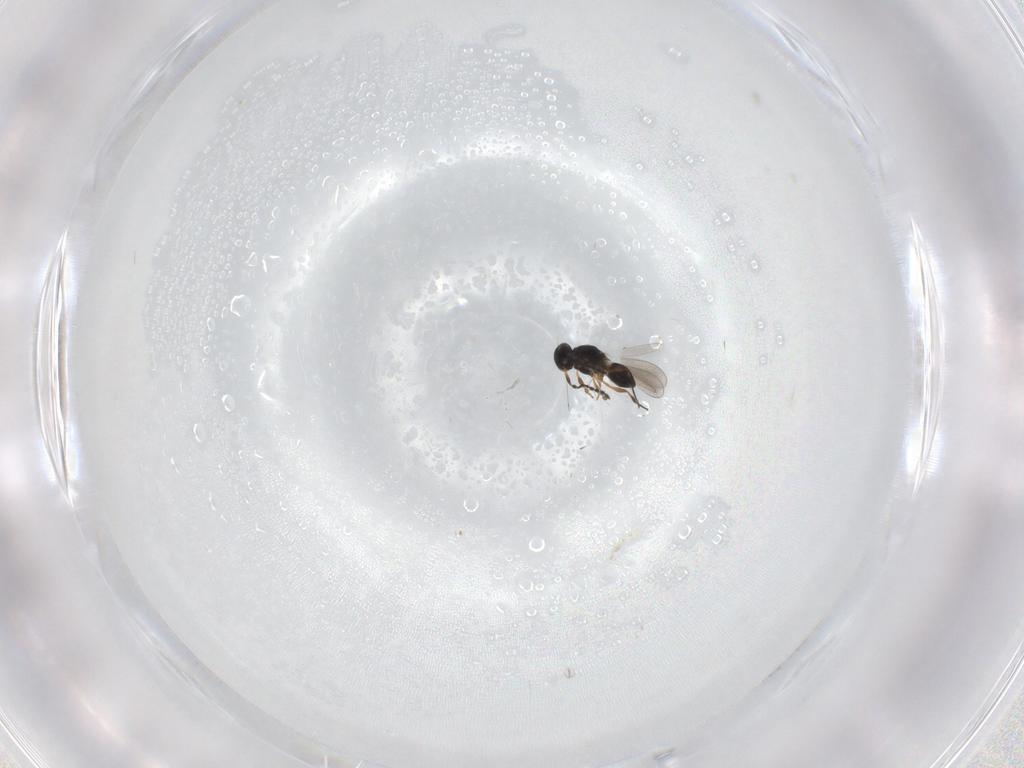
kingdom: Animalia
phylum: Arthropoda
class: Insecta
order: Hymenoptera
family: Platygastridae
